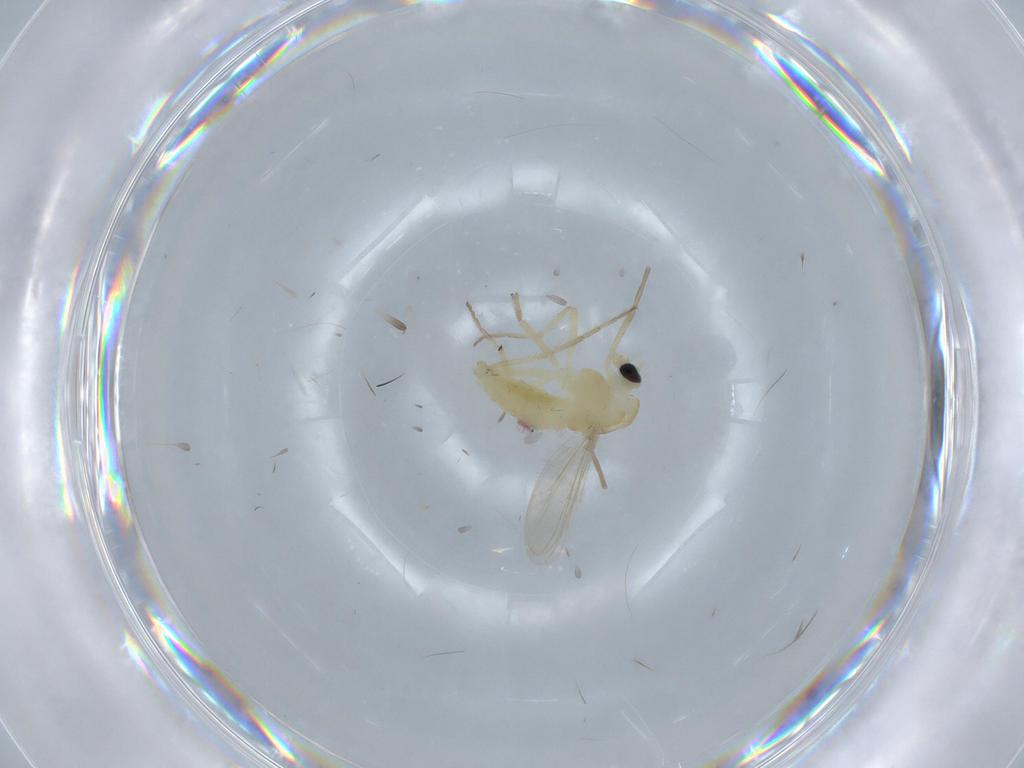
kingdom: Animalia
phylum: Arthropoda
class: Insecta
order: Diptera
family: Chironomidae
